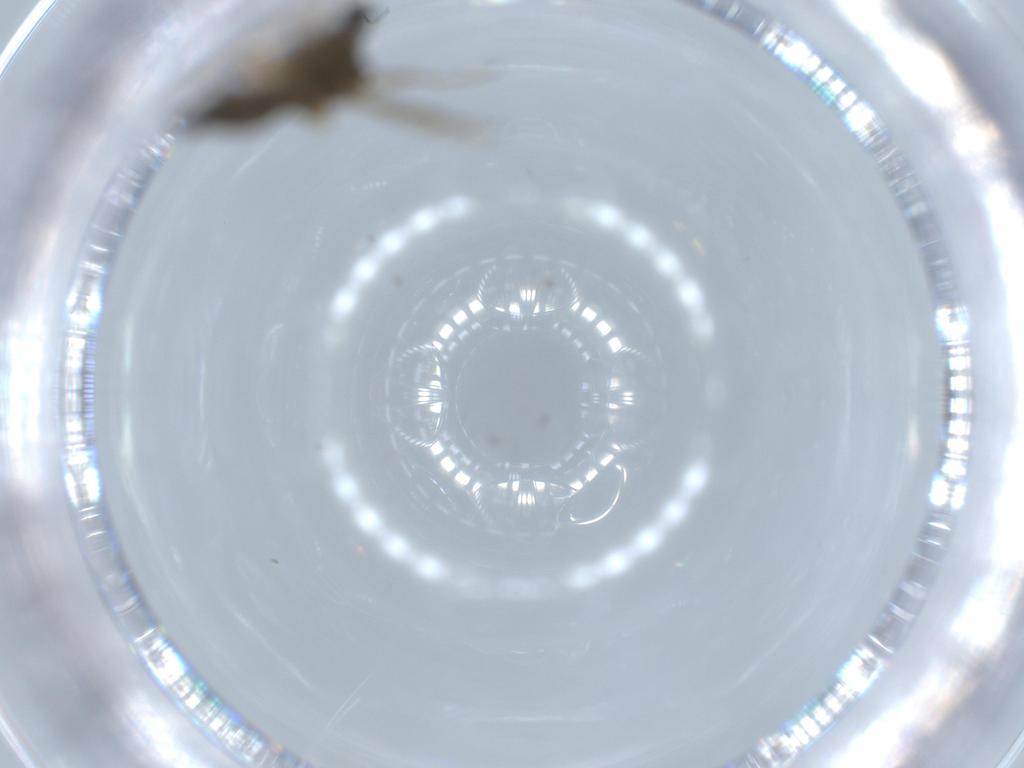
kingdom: Animalia
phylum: Arthropoda
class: Insecta
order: Diptera
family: Ceratopogonidae
